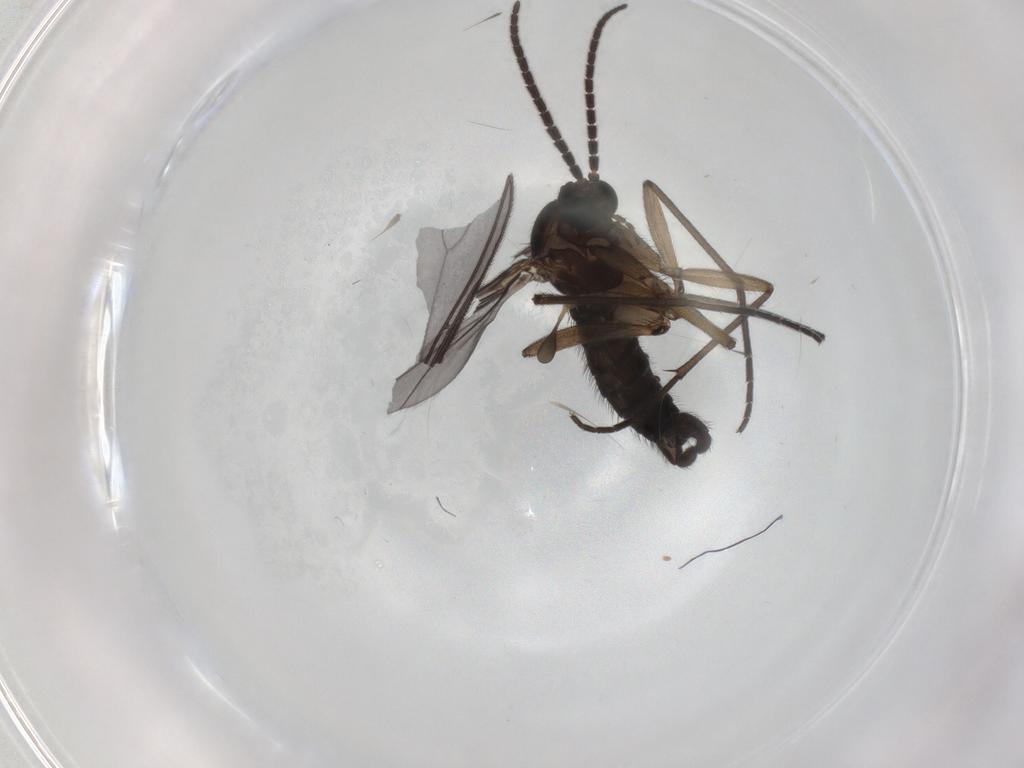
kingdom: Animalia
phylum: Arthropoda
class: Insecta
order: Diptera
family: Sciaridae
